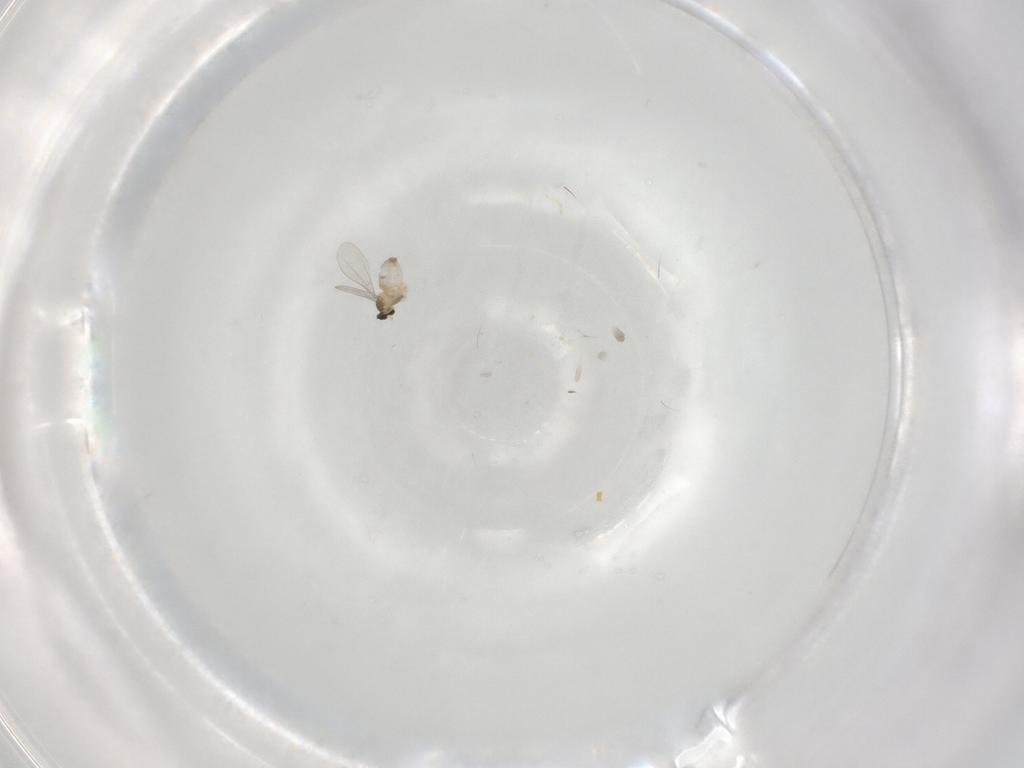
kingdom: Animalia
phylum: Arthropoda
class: Insecta
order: Diptera
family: Cecidomyiidae
